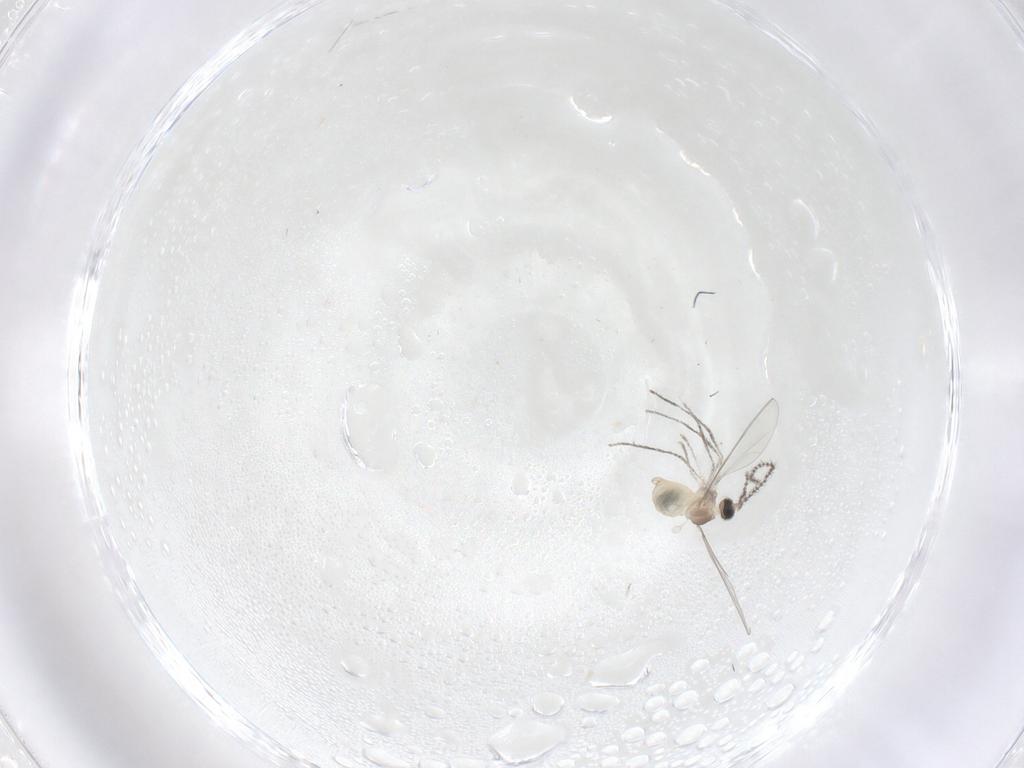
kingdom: Animalia
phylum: Arthropoda
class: Insecta
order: Diptera
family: Cecidomyiidae
